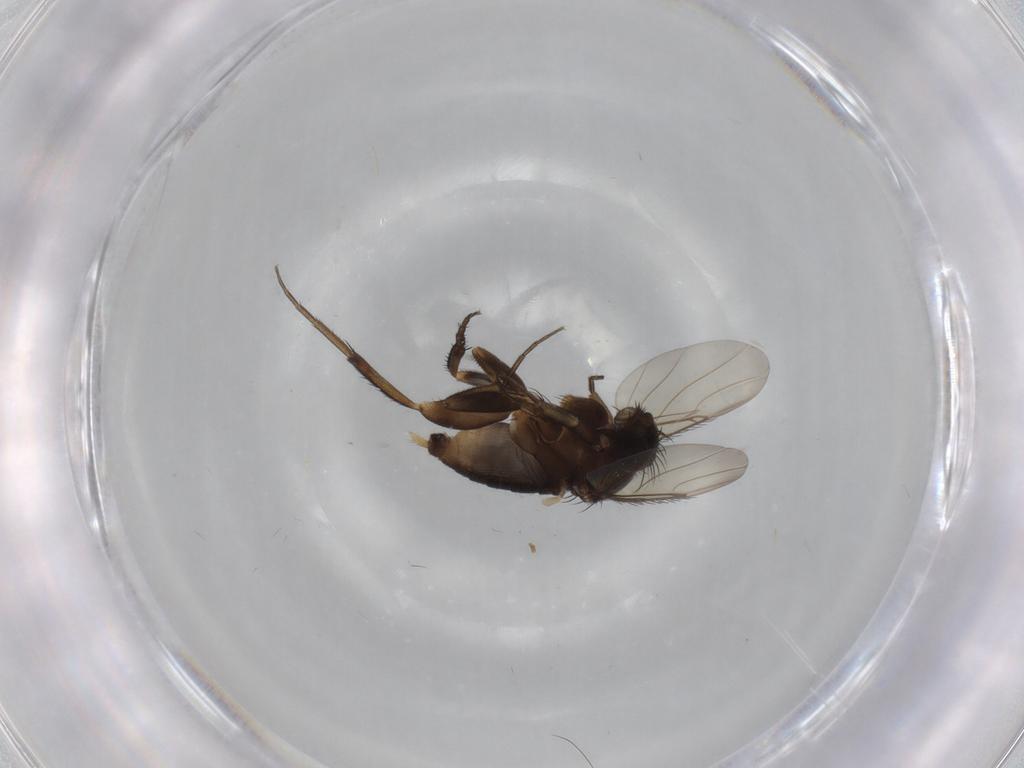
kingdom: Animalia
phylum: Arthropoda
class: Insecta
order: Diptera
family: Phoridae
